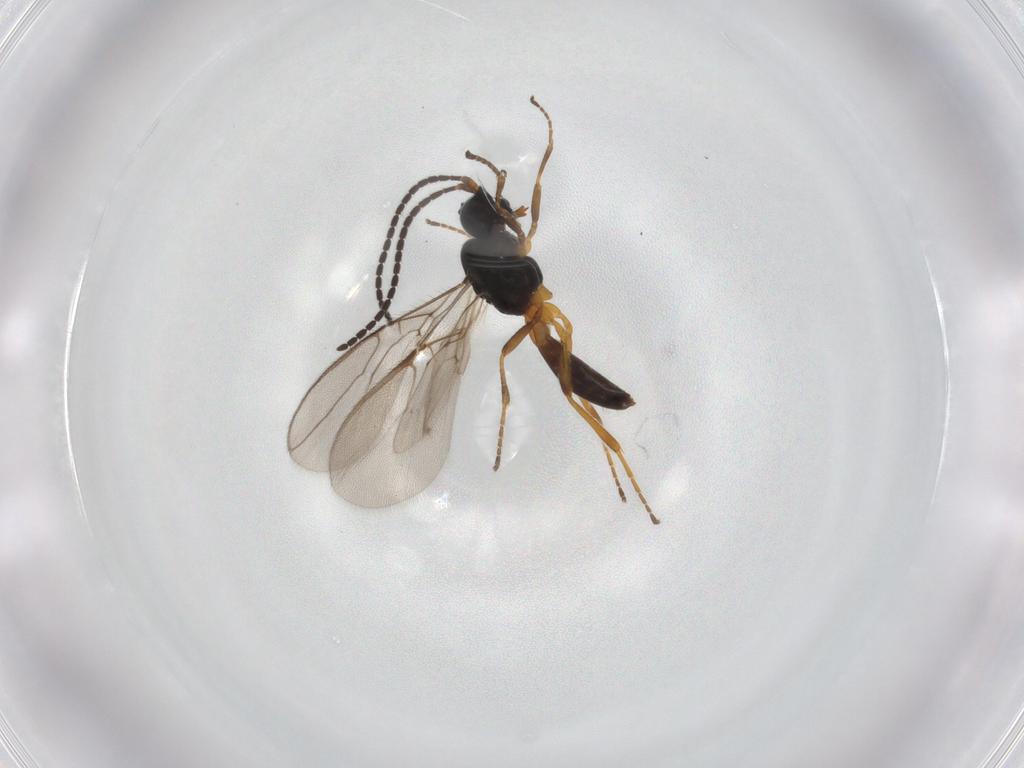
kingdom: Animalia
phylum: Arthropoda
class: Insecta
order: Hymenoptera
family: Braconidae
